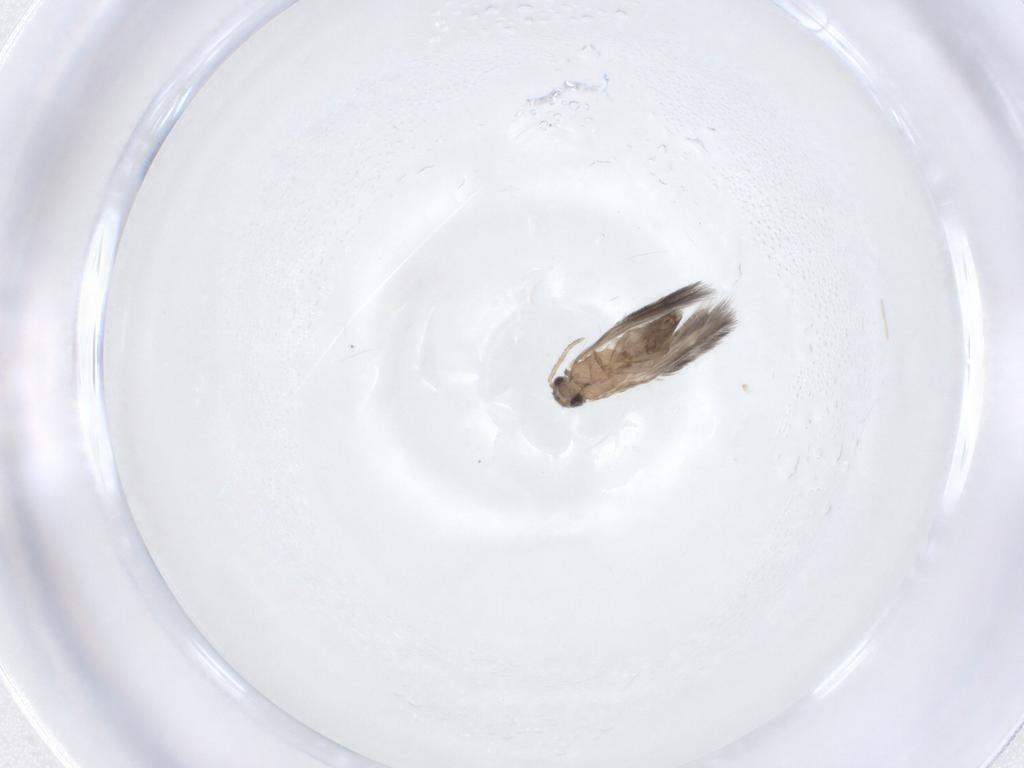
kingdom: Animalia
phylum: Arthropoda
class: Insecta
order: Trichoptera
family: Hydroptilidae
